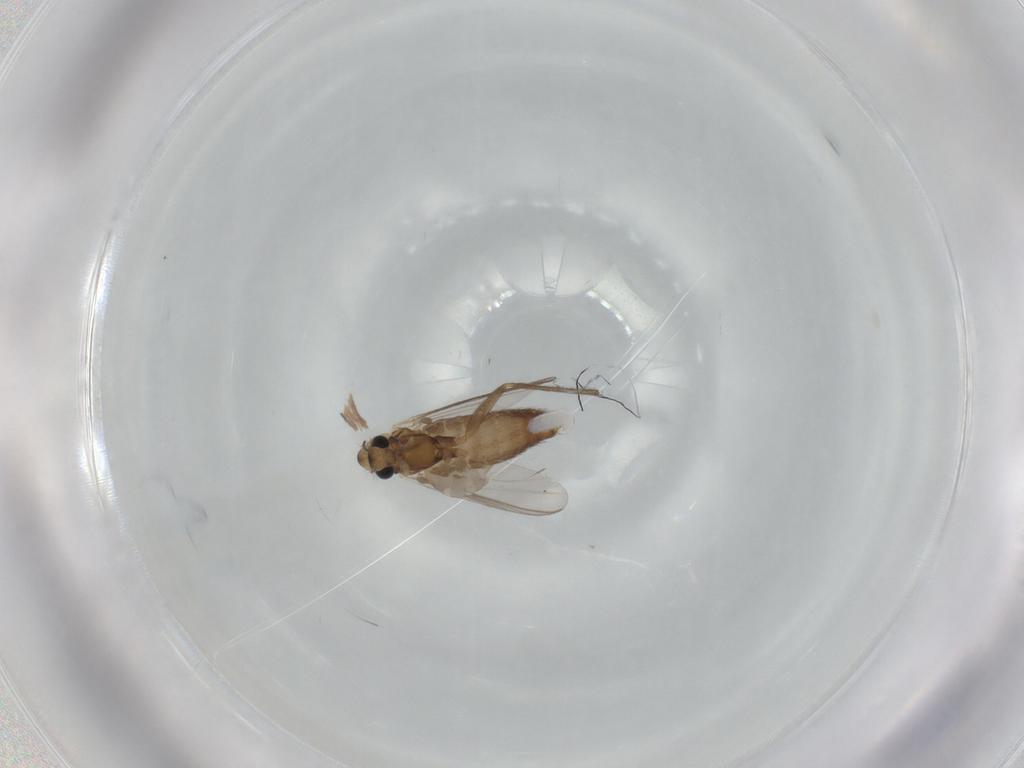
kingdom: Animalia
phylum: Arthropoda
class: Insecta
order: Diptera
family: Chironomidae
